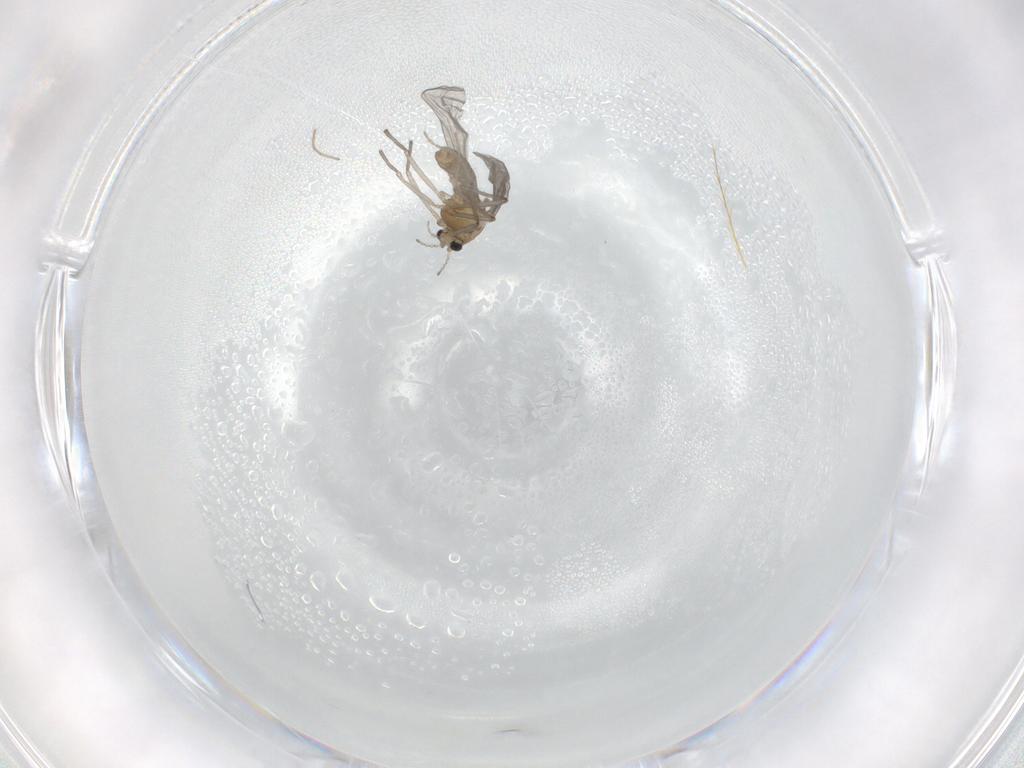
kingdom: Animalia
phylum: Arthropoda
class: Insecta
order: Diptera
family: Chironomidae
